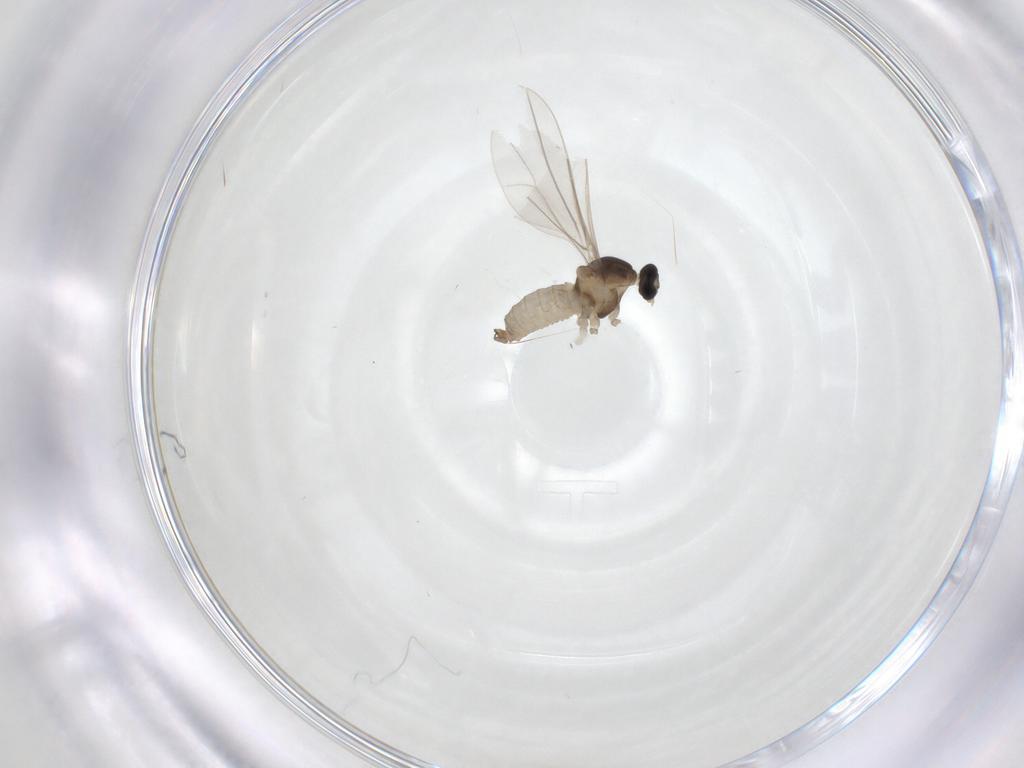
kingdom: Animalia
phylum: Arthropoda
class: Insecta
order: Diptera
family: Cecidomyiidae
